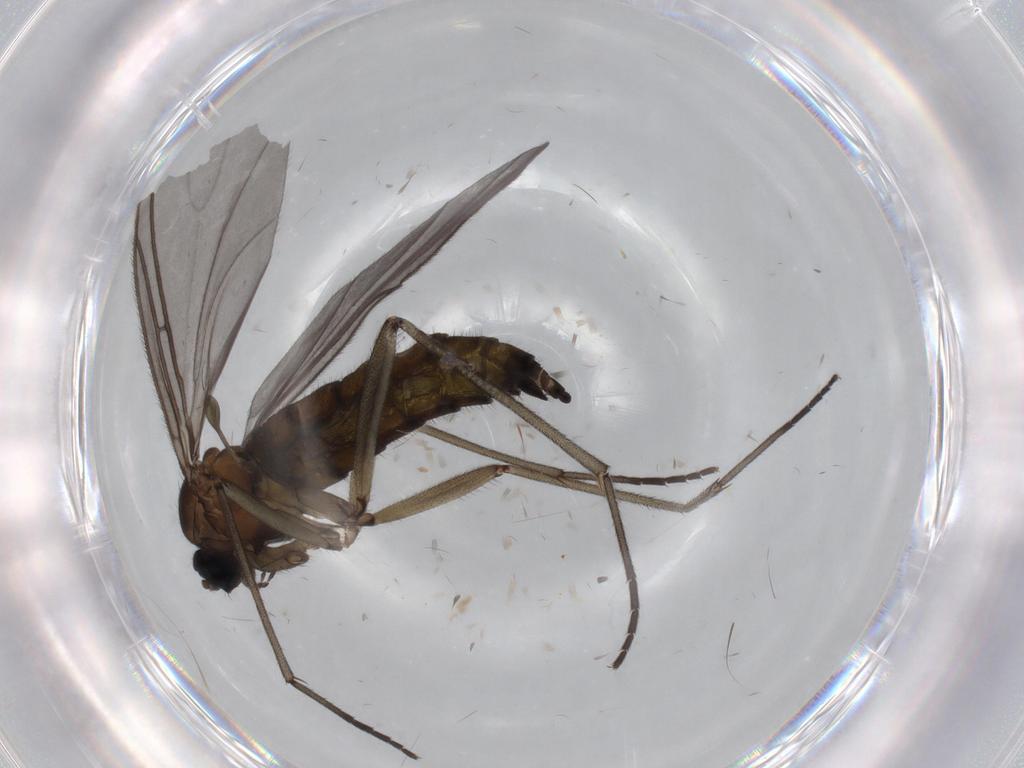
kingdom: Animalia
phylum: Arthropoda
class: Insecta
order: Diptera
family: Sciaridae
